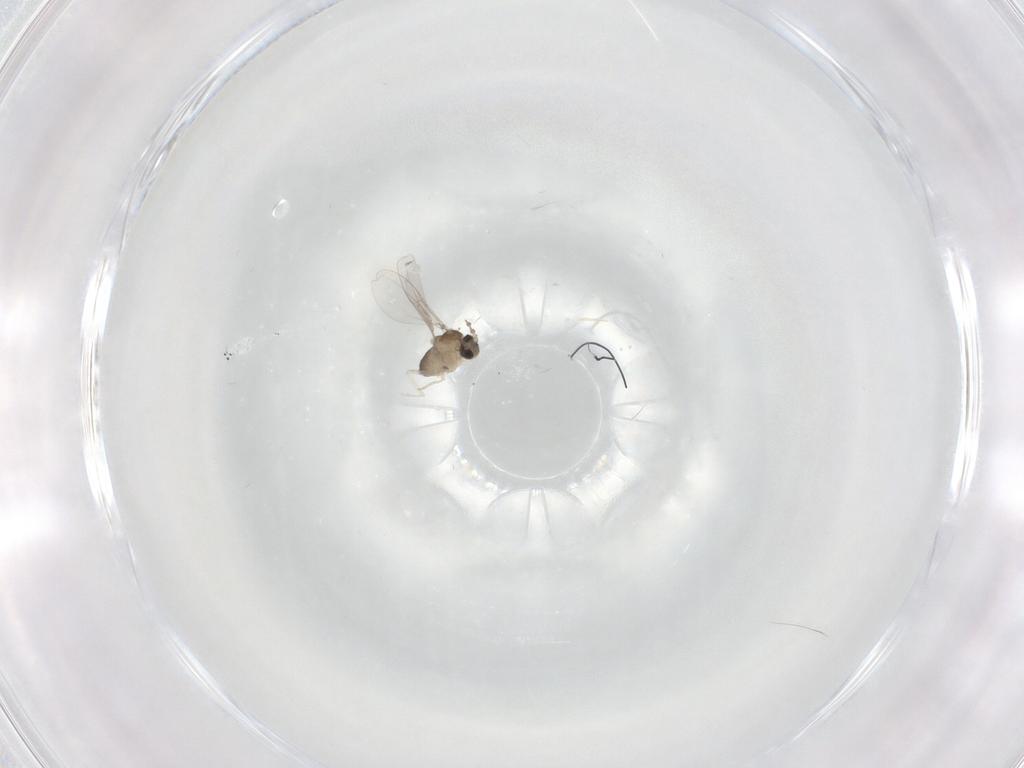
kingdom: Animalia
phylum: Arthropoda
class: Insecta
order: Diptera
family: Phoridae
